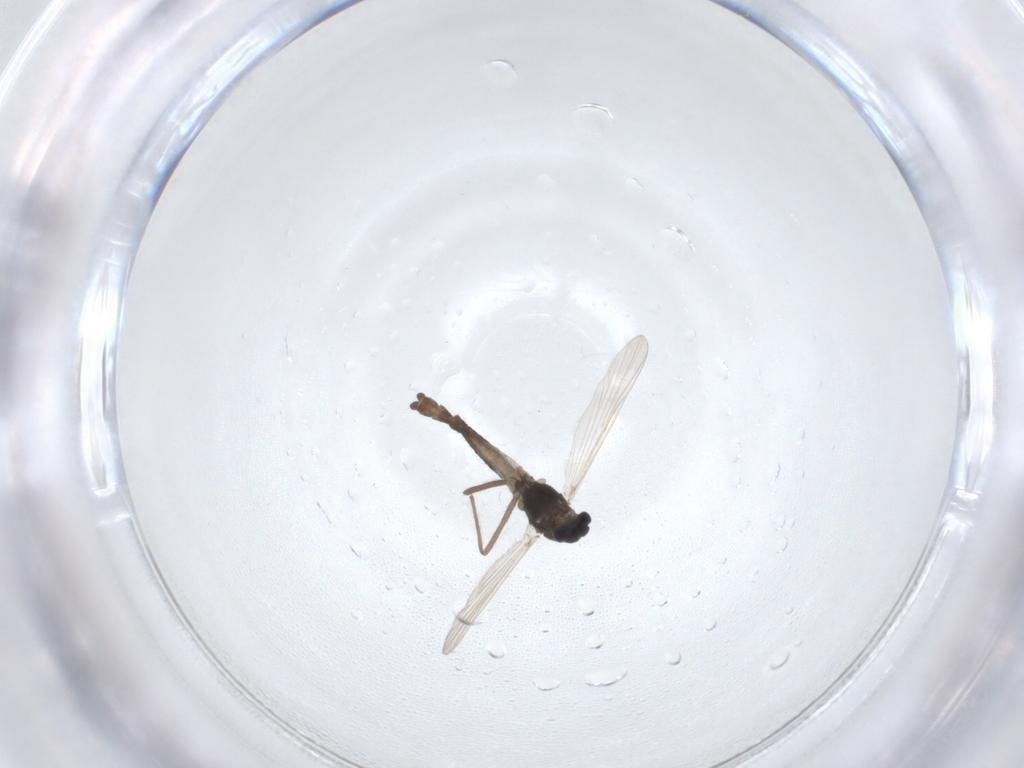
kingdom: Animalia
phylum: Arthropoda
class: Insecta
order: Diptera
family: Chironomidae
